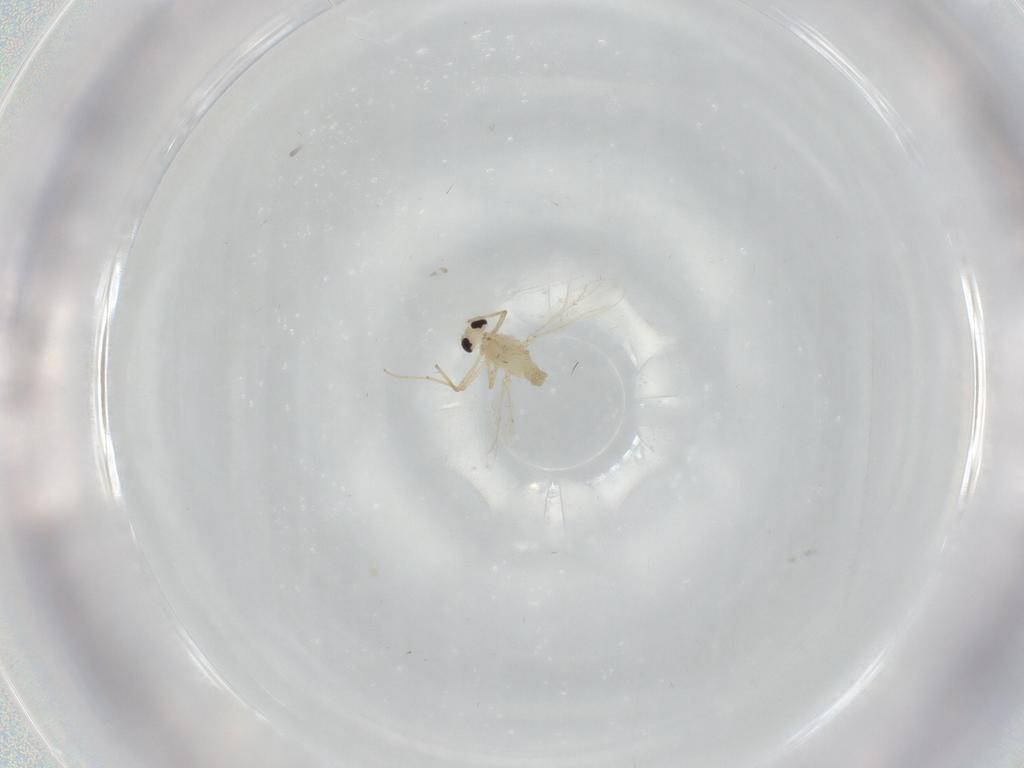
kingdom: Animalia
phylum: Arthropoda
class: Insecta
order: Diptera
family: Chironomidae
